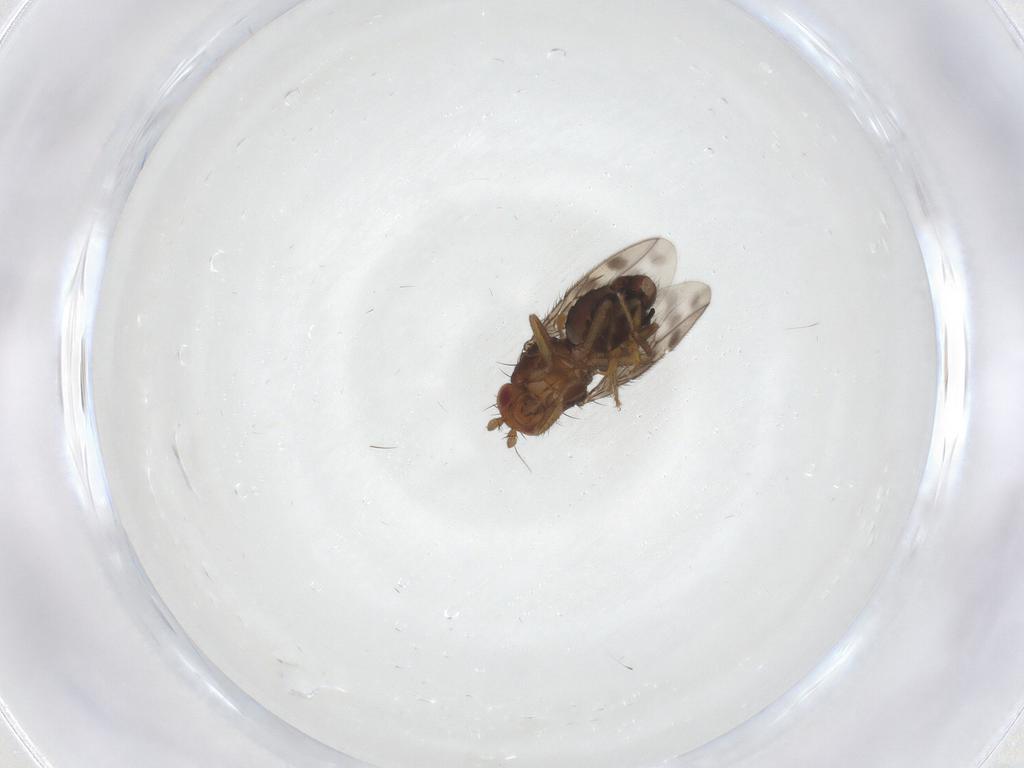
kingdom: Animalia
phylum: Arthropoda
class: Insecta
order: Diptera
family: Sphaeroceridae
